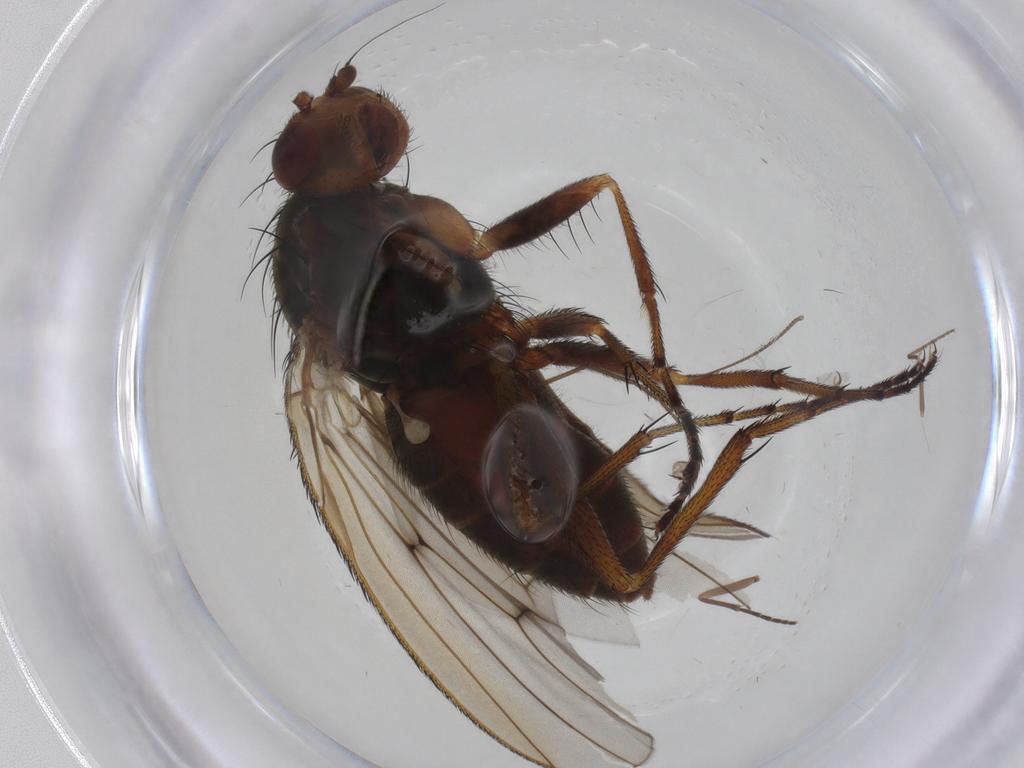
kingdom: Animalia
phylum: Arthropoda
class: Insecta
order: Diptera
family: Heleomyzidae
